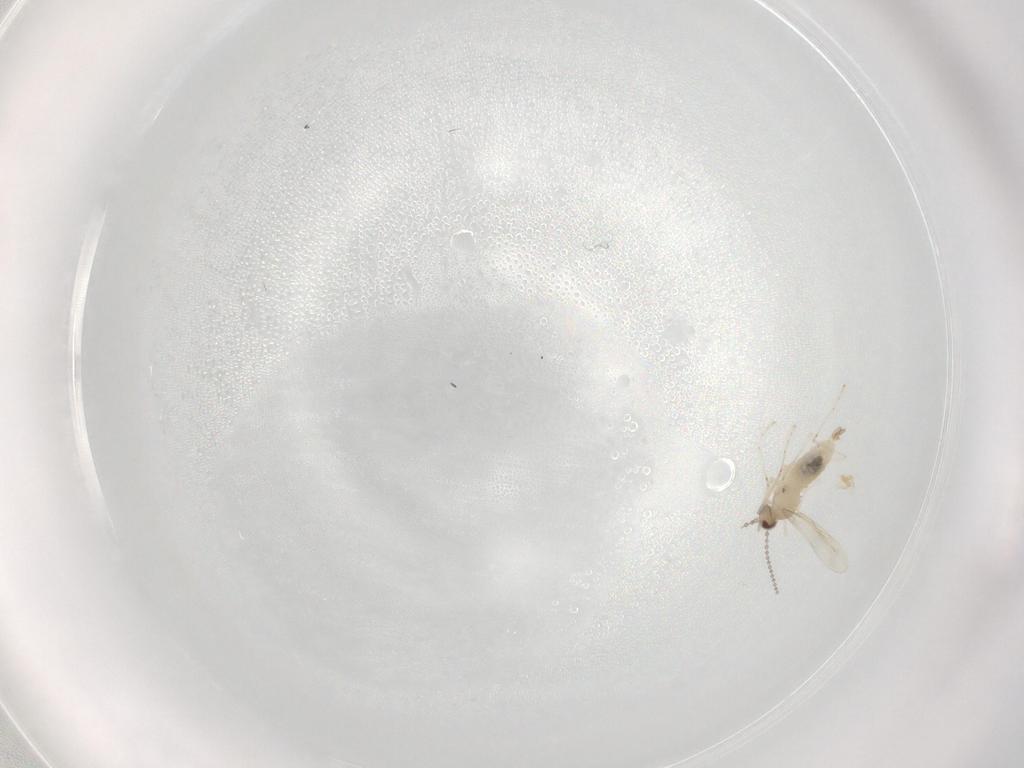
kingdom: Animalia
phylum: Arthropoda
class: Insecta
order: Diptera
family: Cecidomyiidae
